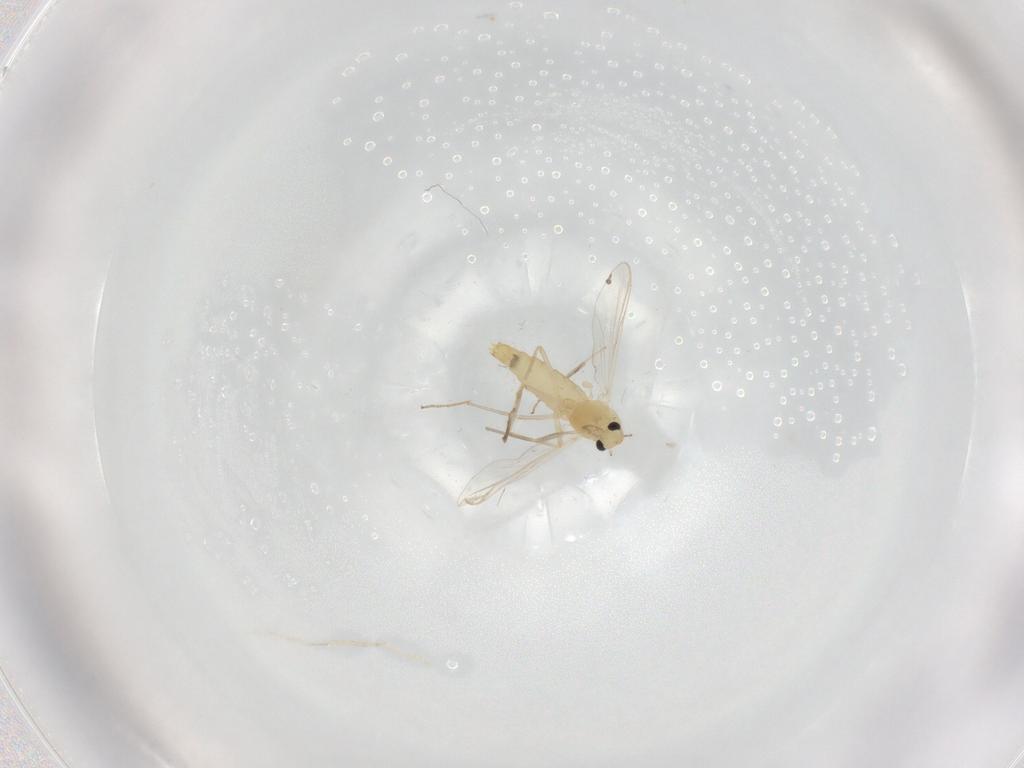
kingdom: Animalia
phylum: Arthropoda
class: Insecta
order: Diptera
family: Chironomidae
